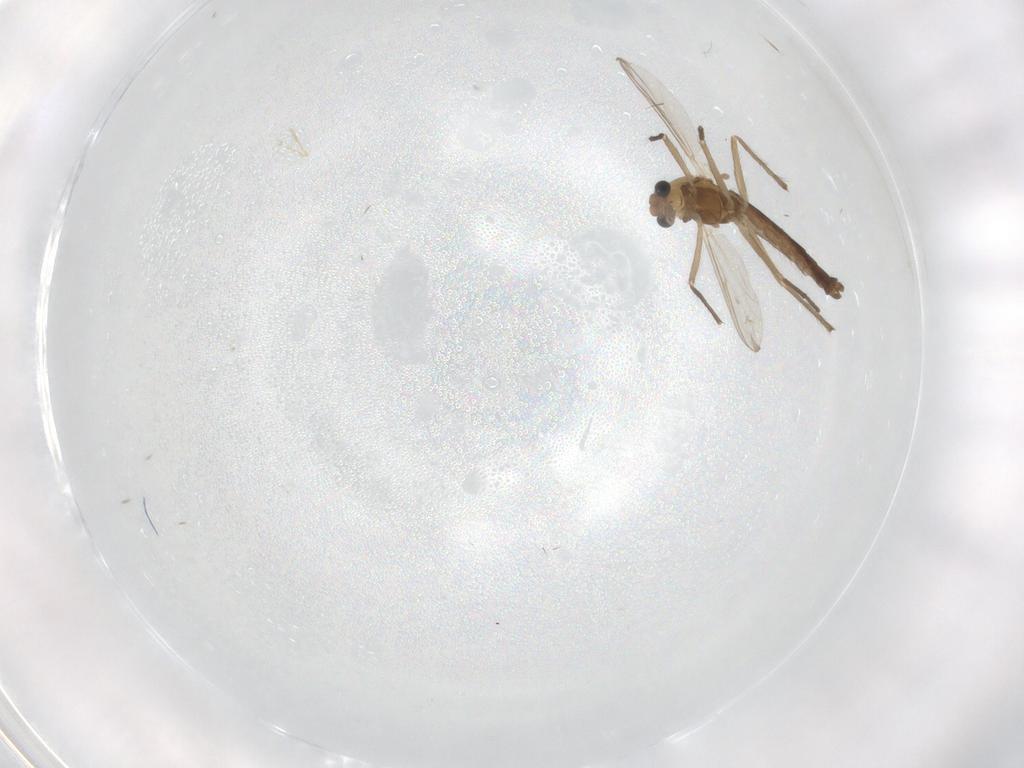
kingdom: Animalia
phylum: Arthropoda
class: Insecta
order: Diptera
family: Chironomidae
